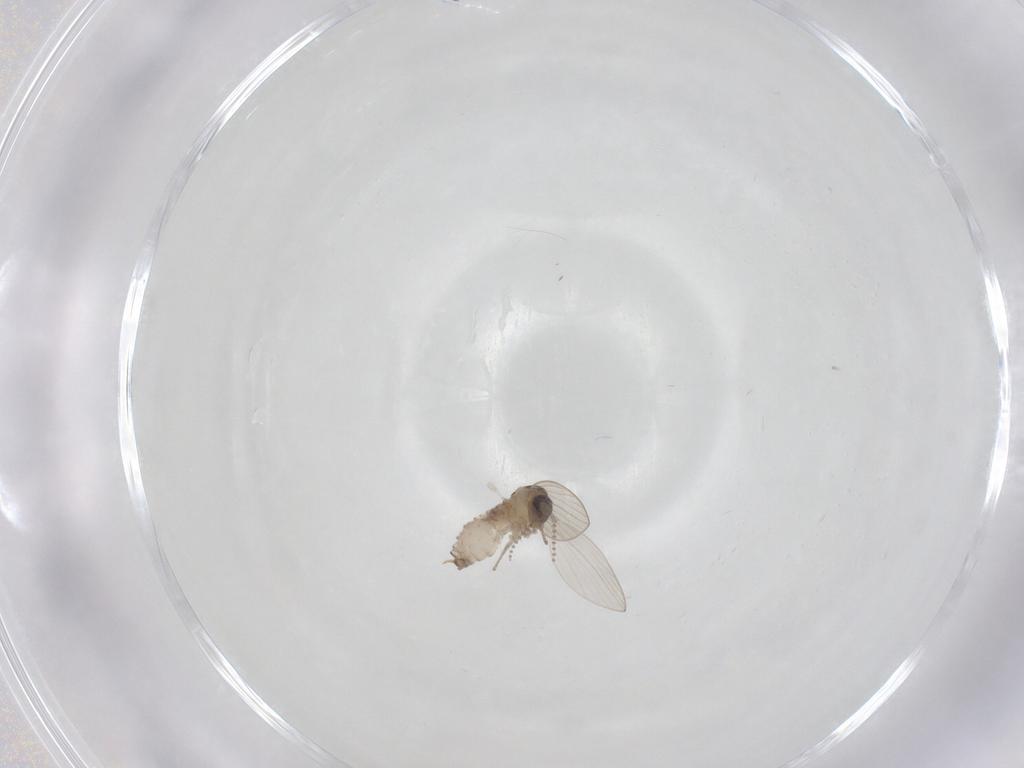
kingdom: Animalia
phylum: Arthropoda
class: Insecta
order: Diptera
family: Psychodidae
